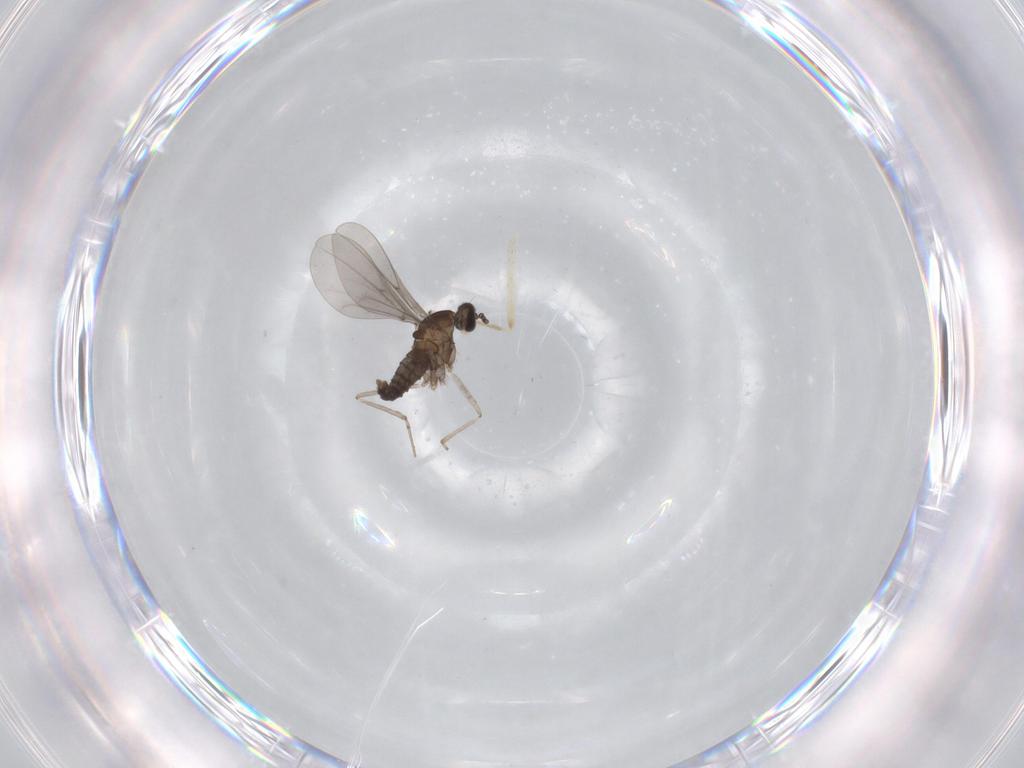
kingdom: Animalia
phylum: Arthropoda
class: Insecta
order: Diptera
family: Cecidomyiidae
